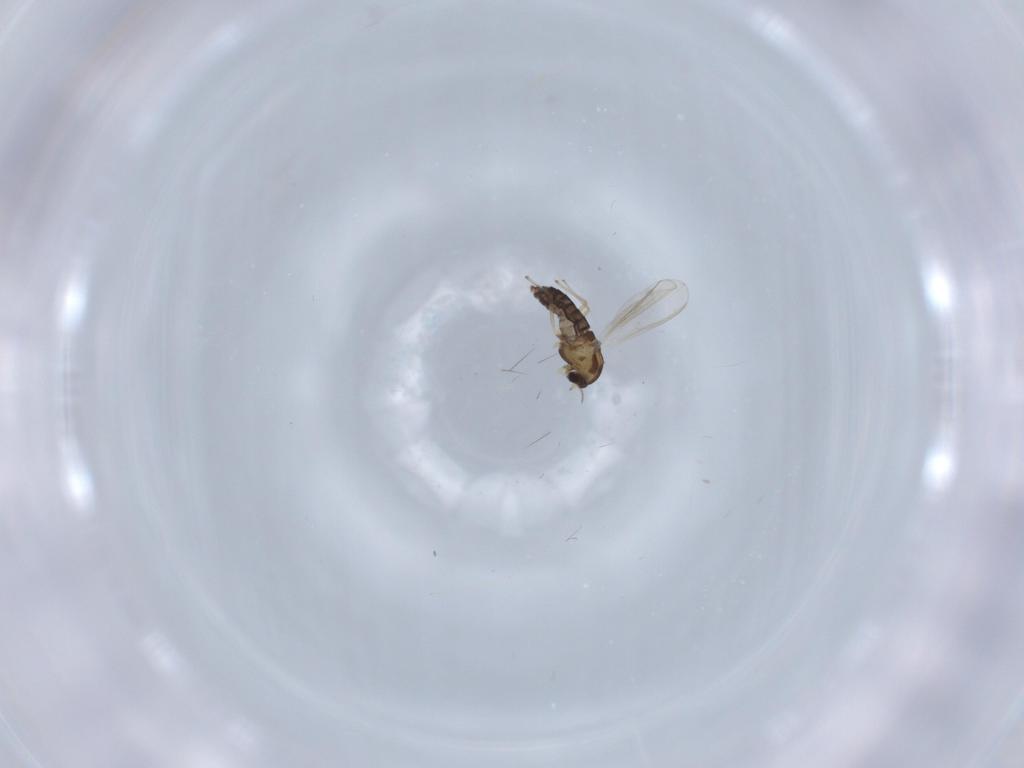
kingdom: Animalia
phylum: Arthropoda
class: Insecta
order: Diptera
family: Chironomidae
